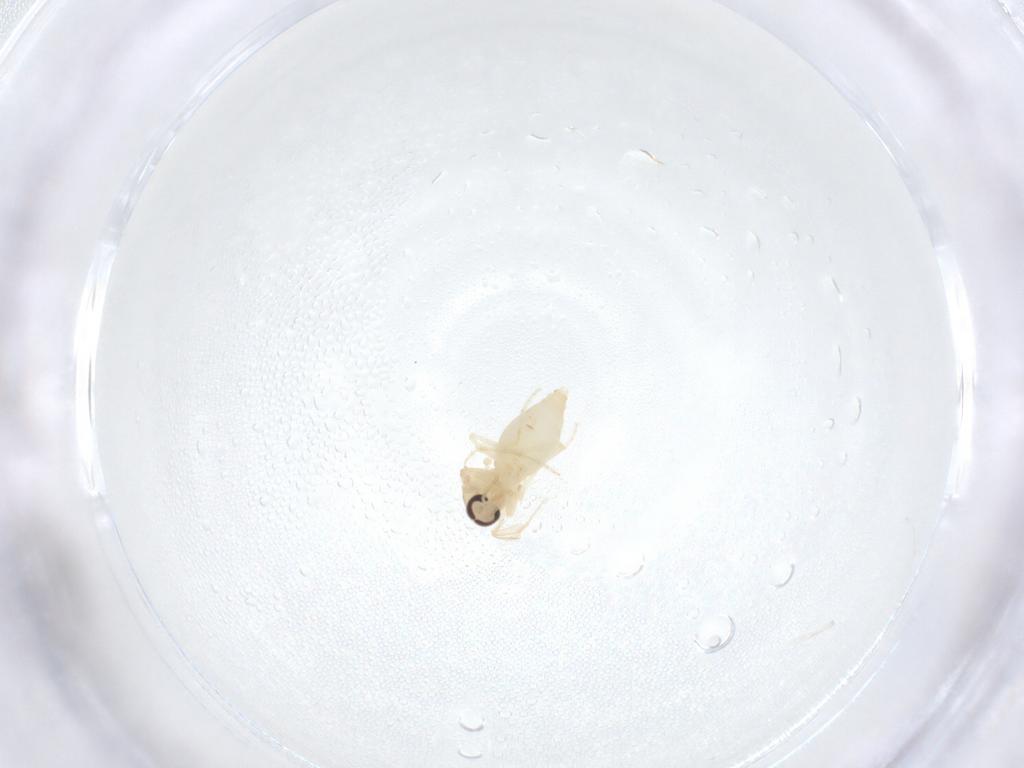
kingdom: Animalia
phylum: Arthropoda
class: Insecta
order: Diptera
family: Ceratopogonidae
